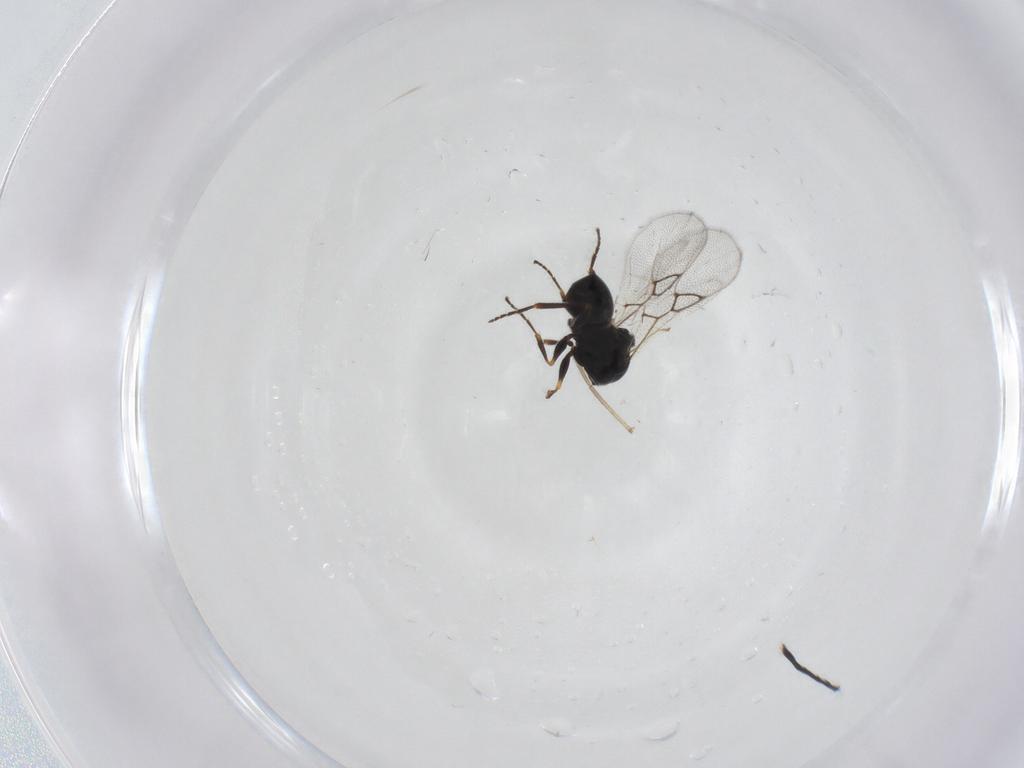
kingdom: Animalia
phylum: Arthropoda
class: Insecta
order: Hymenoptera
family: Figitidae
